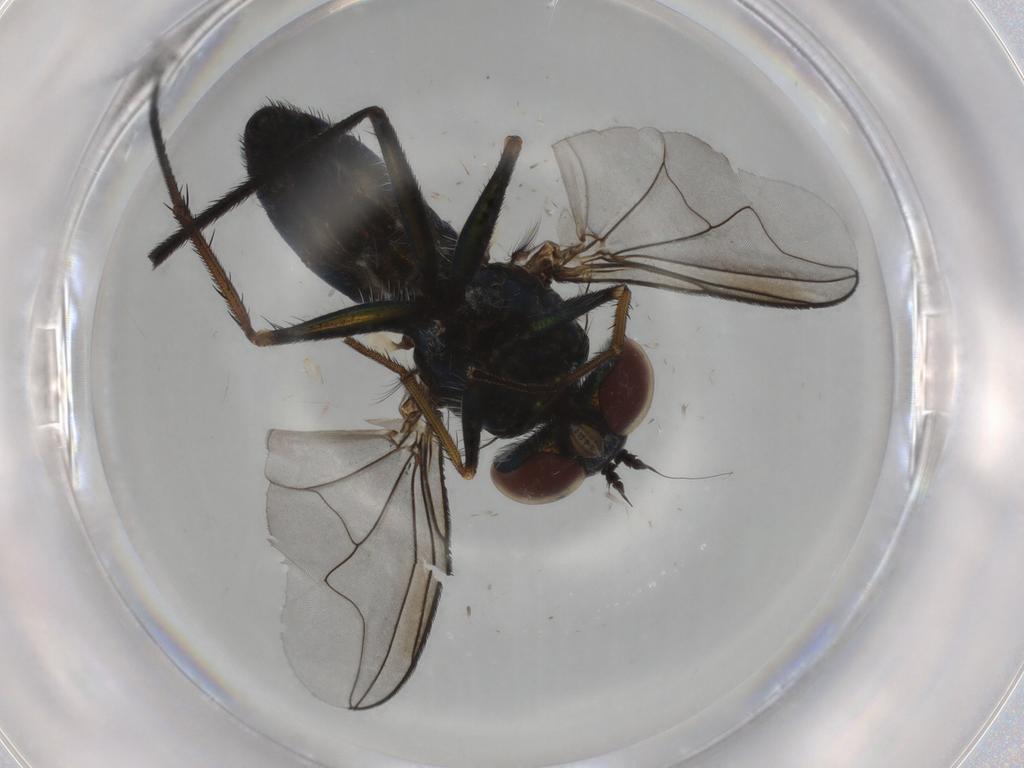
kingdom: Animalia
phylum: Arthropoda
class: Insecta
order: Diptera
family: Agromyzidae
